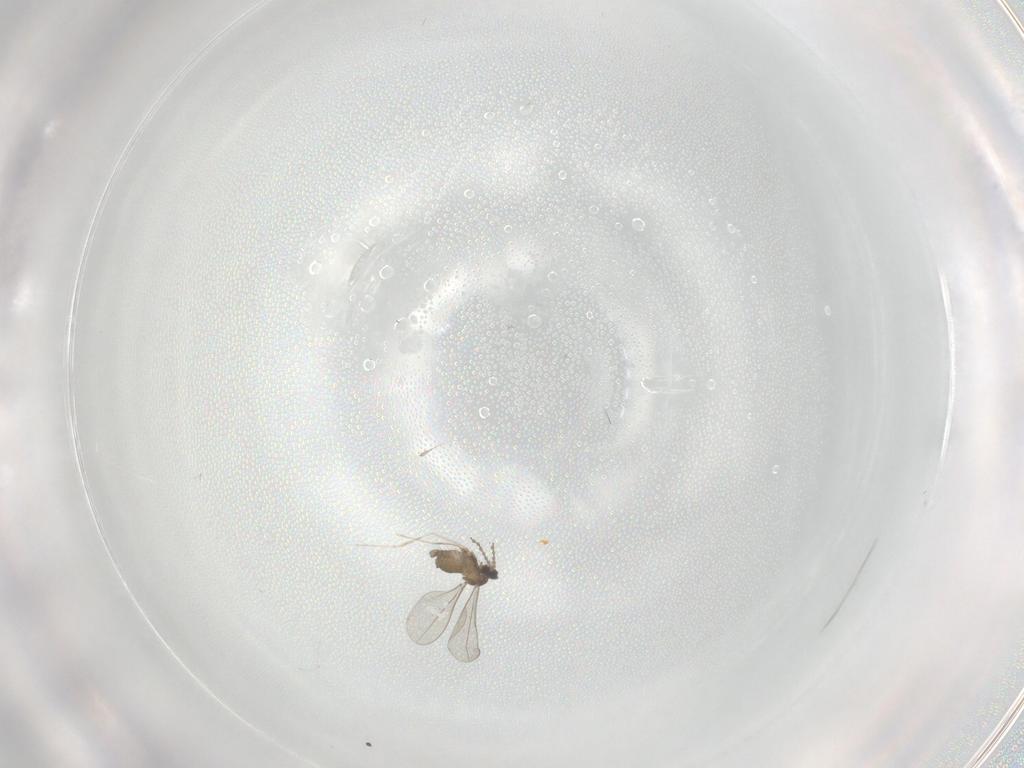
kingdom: Animalia
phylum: Arthropoda
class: Insecta
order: Diptera
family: Cecidomyiidae
